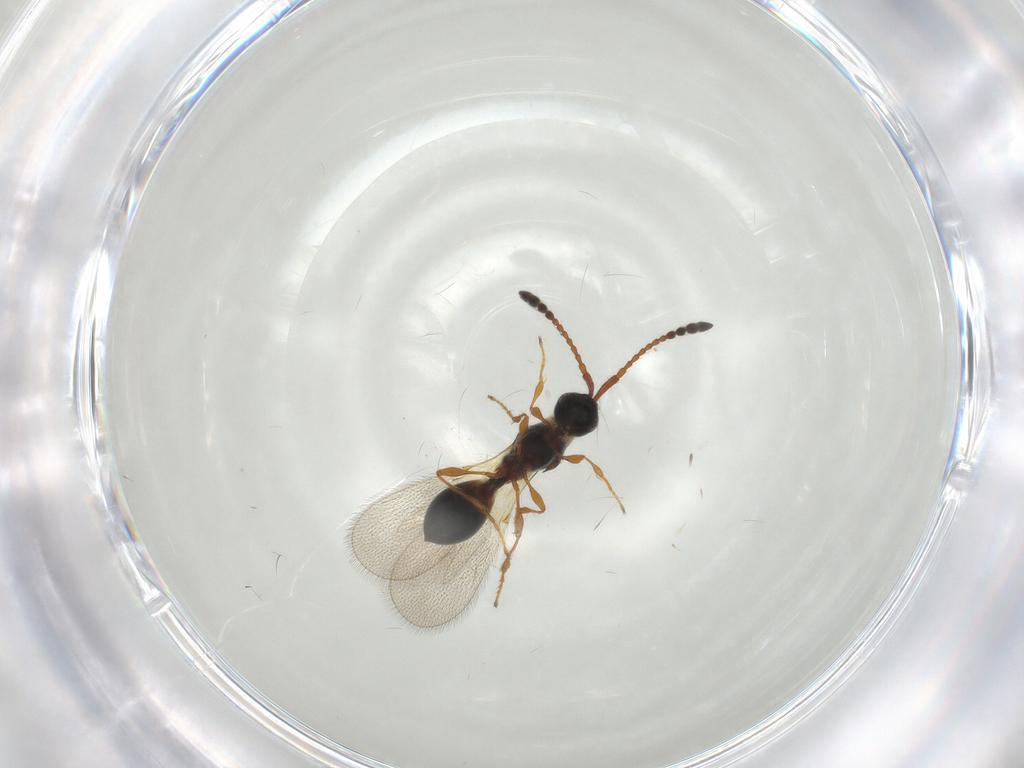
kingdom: Animalia
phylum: Arthropoda
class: Insecta
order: Hymenoptera
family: Diapriidae
